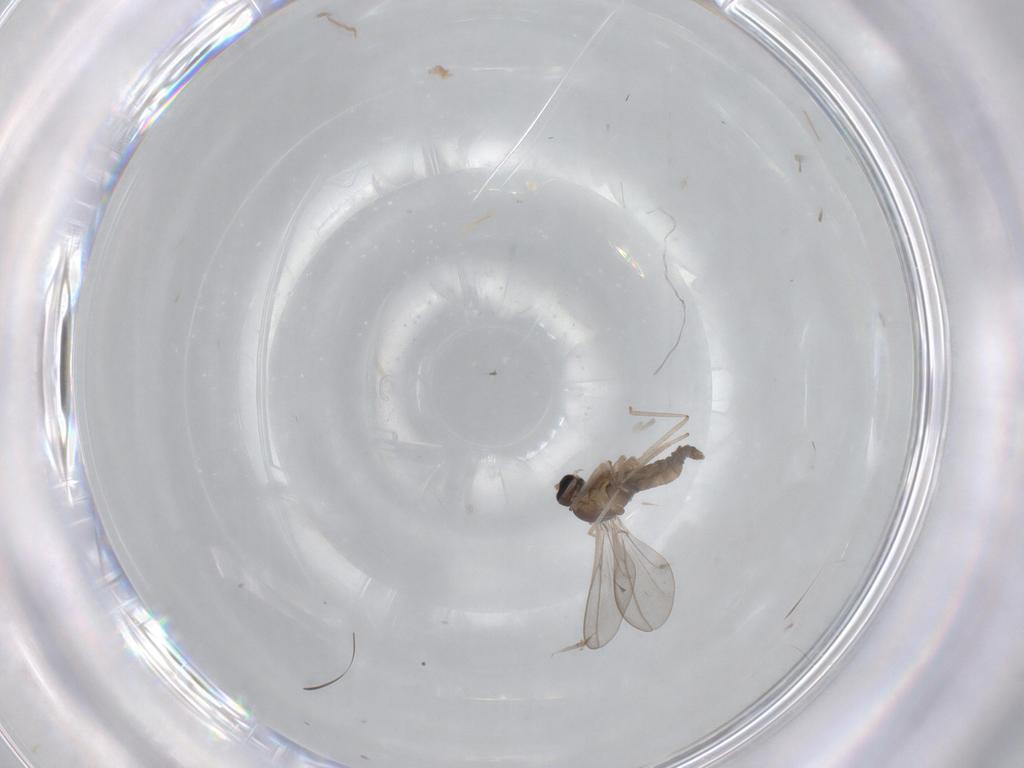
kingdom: Animalia
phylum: Arthropoda
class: Insecta
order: Diptera
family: Cecidomyiidae
